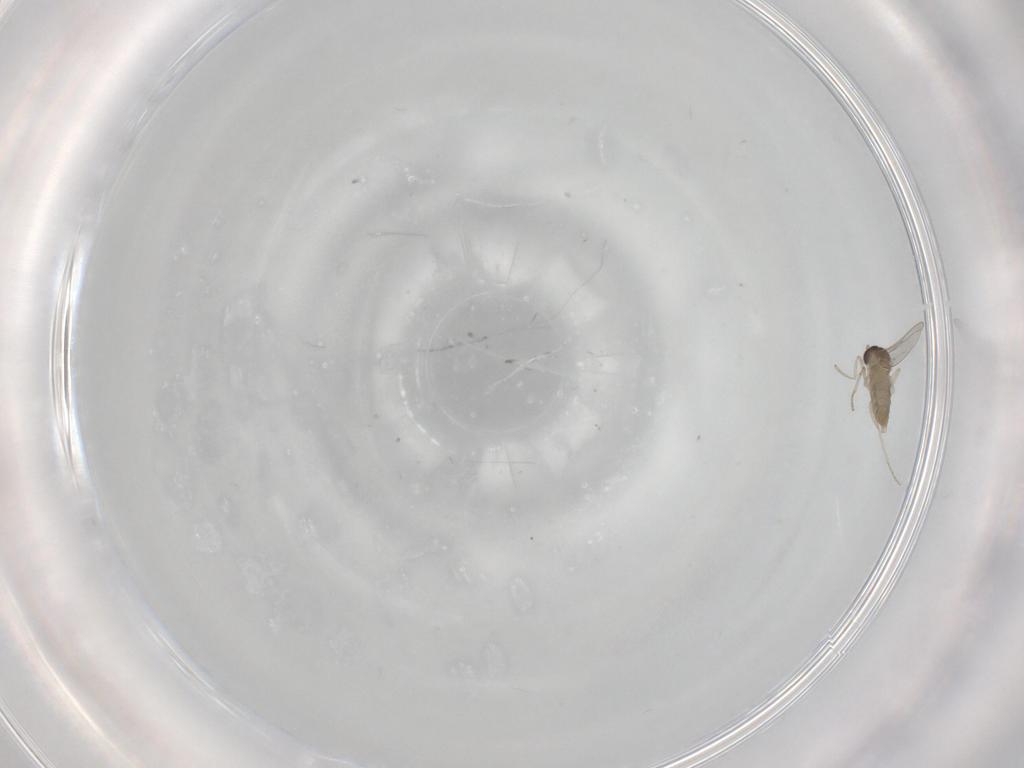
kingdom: Animalia
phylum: Arthropoda
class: Insecta
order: Diptera
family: Cecidomyiidae
